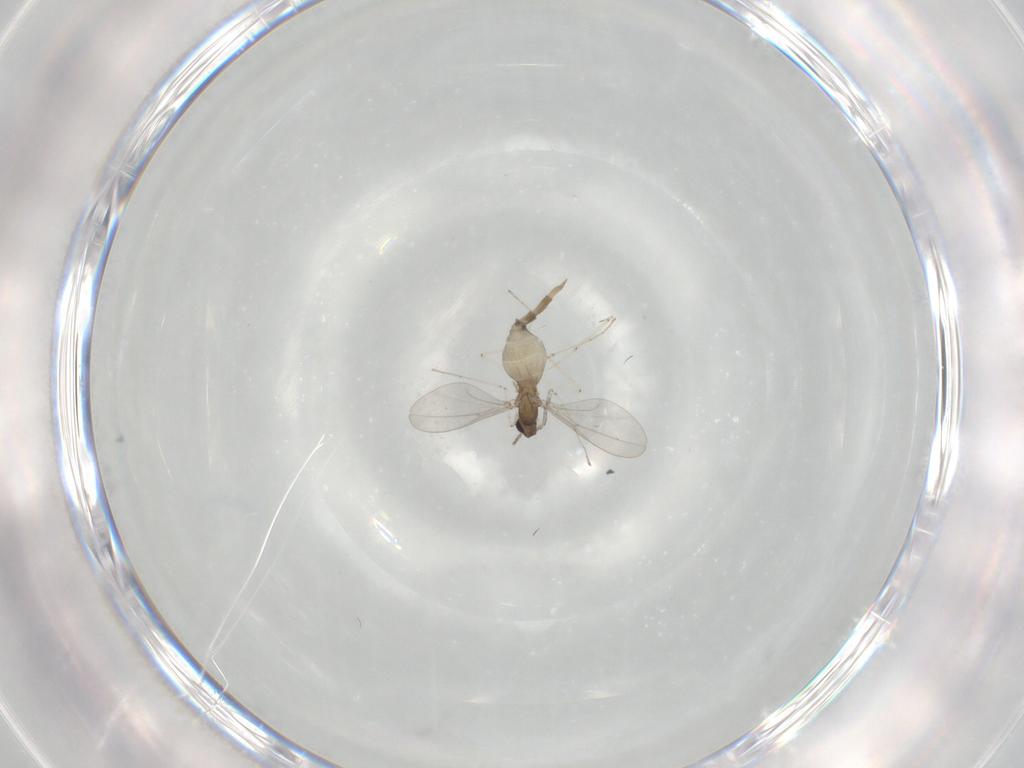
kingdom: Animalia
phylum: Arthropoda
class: Insecta
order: Diptera
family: Cecidomyiidae
